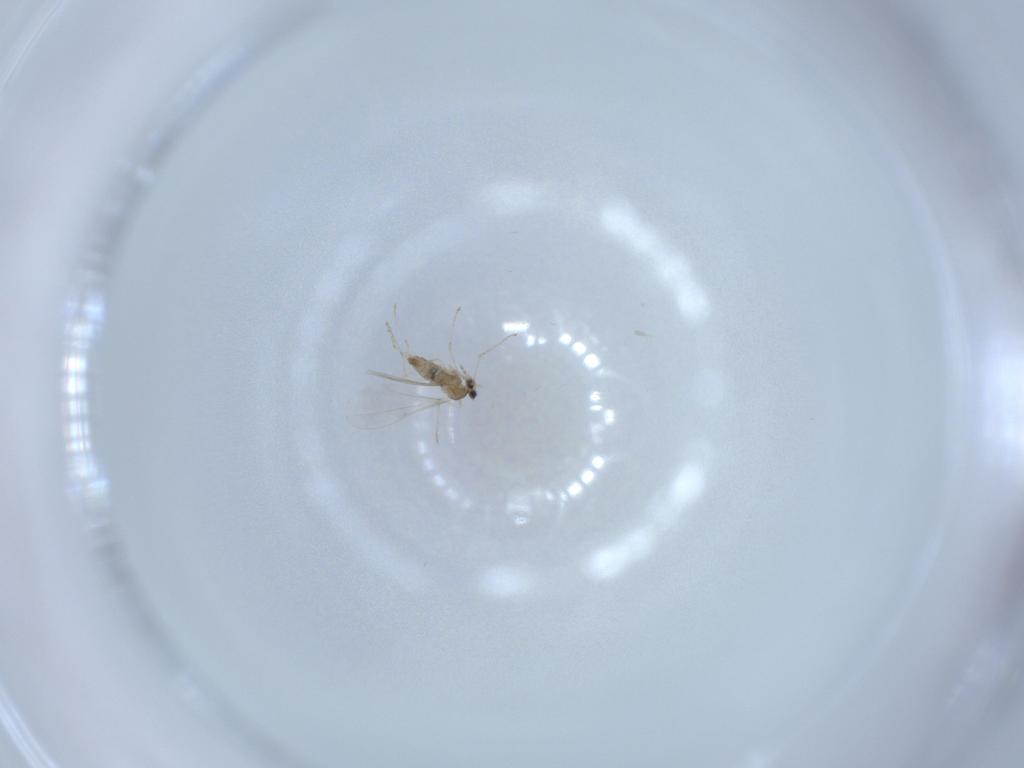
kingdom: Animalia
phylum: Arthropoda
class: Insecta
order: Diptera
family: Cecidomyiidae
